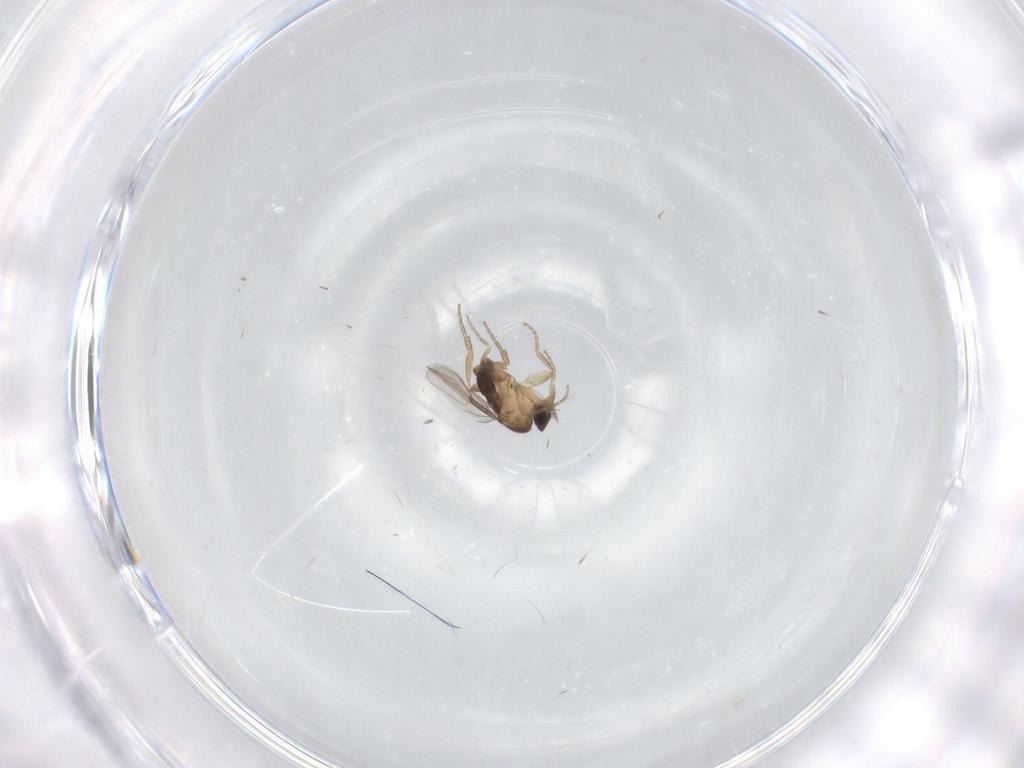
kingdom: Animalia
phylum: Arthropoda
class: Insecta
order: Diptera
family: Phoridae
